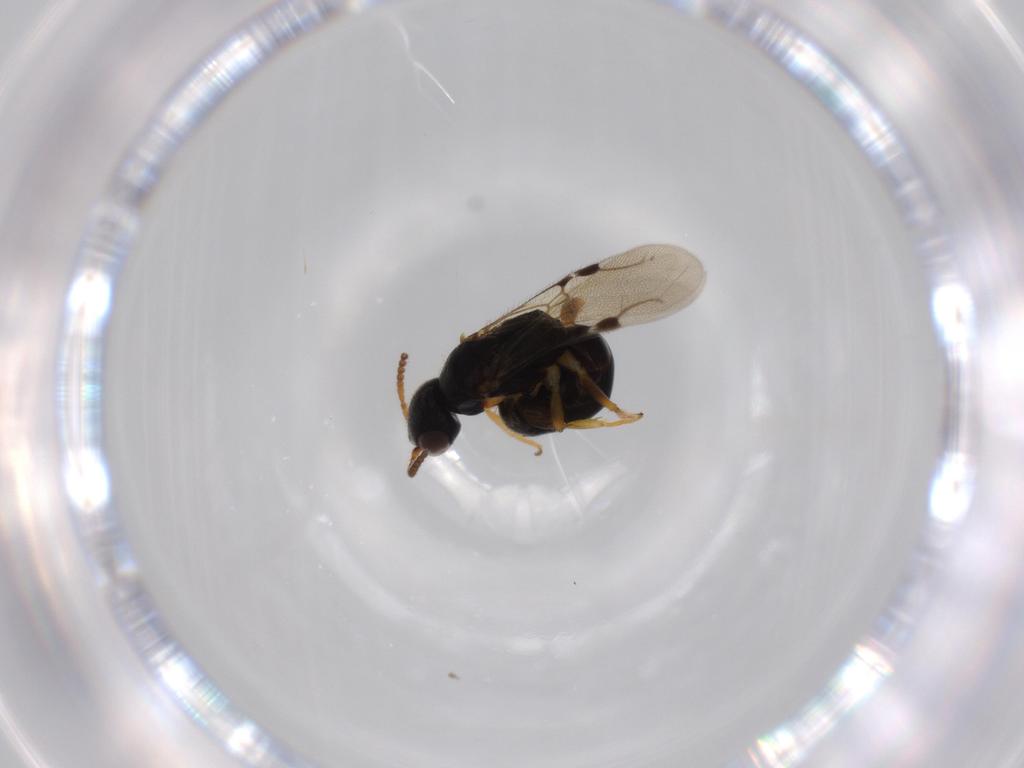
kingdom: Animalia
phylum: Arthropoda
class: Insecta
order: Hymenoptera
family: Bethylidae
